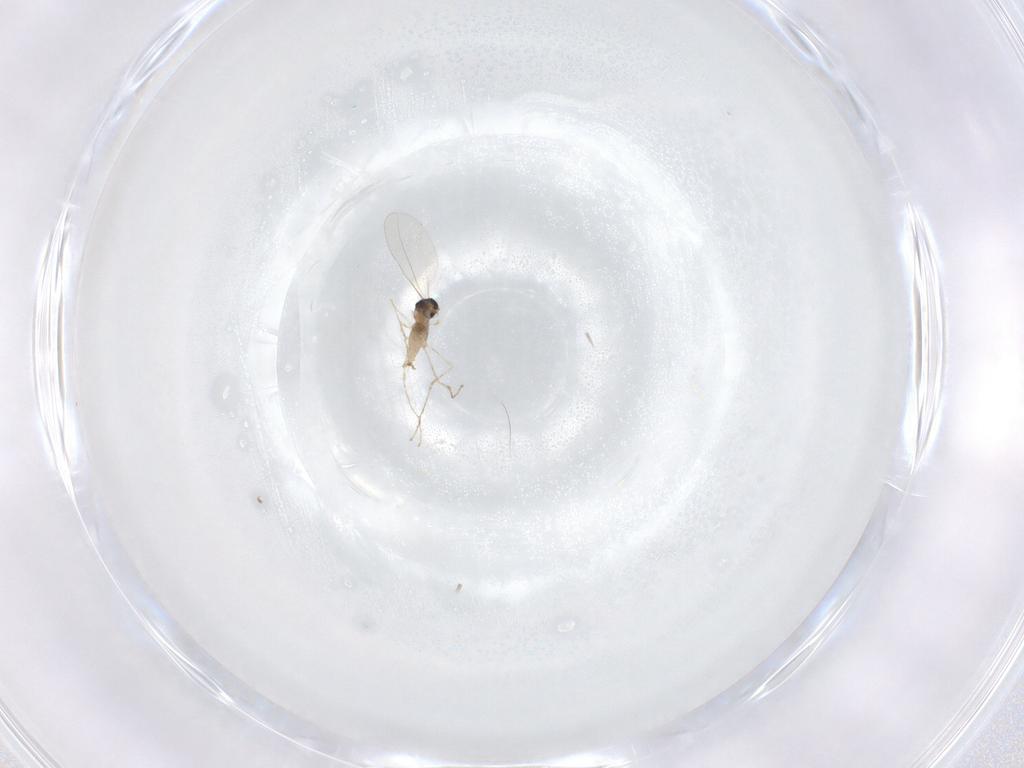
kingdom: Animalia
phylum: Arthropoda
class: Insecta
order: Diptera
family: Cecidomyiidae
